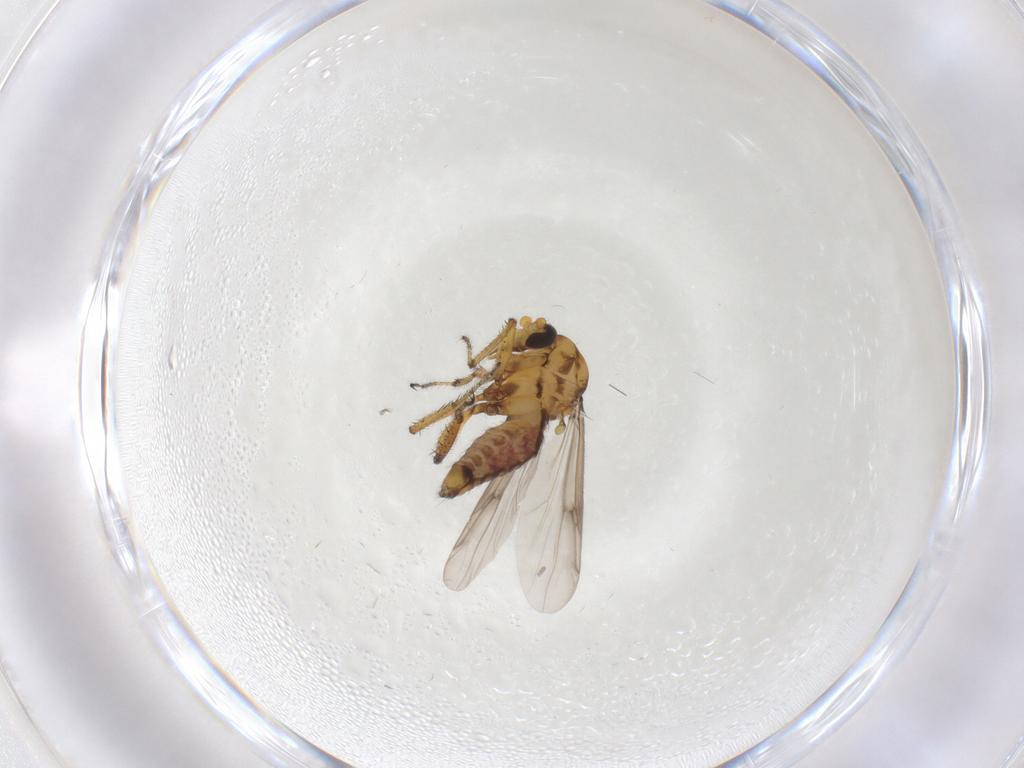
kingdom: Animalia
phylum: Arthropoda
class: Insecta
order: Diptera
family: Ceratopogonidae
